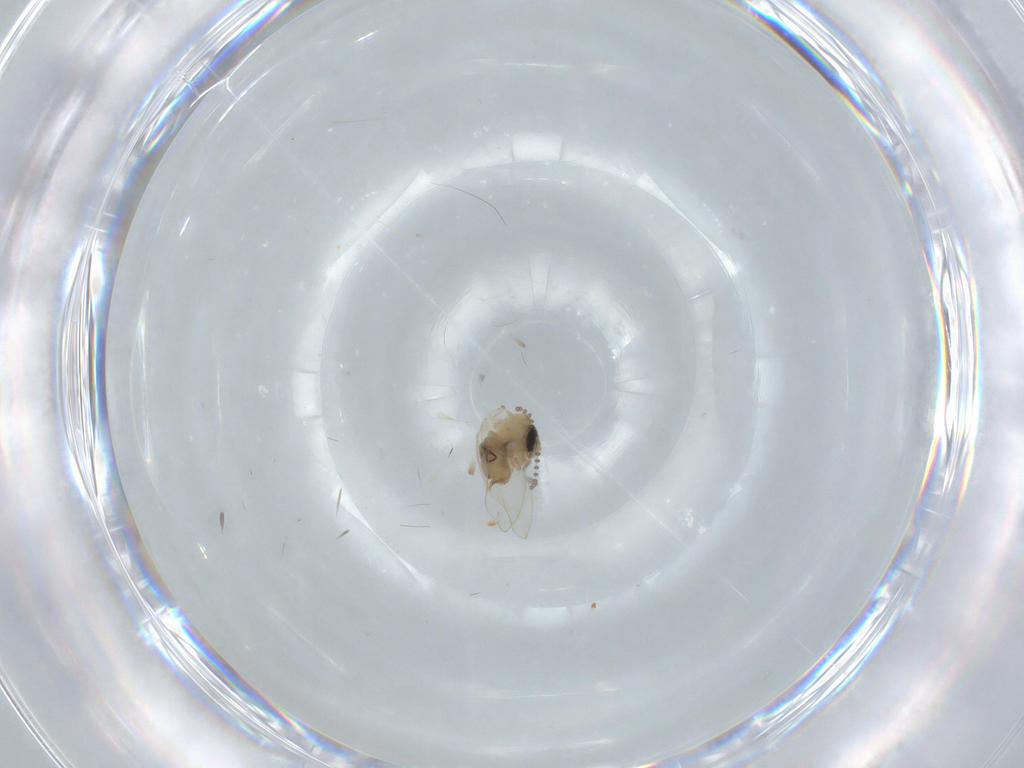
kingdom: Animalia
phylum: Arthropoda
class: Insecta
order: Diptera
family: Psychodidae
